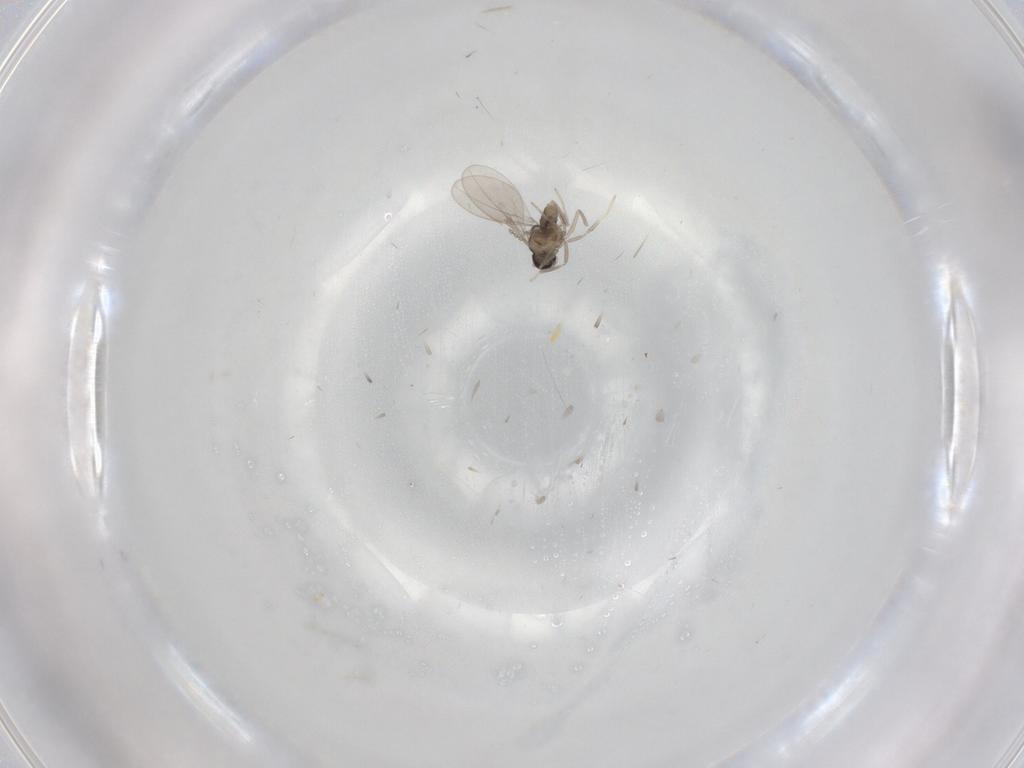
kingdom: Animalia
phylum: Arthropoda
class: Insecta
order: Diptera
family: Cecidomyiidae
